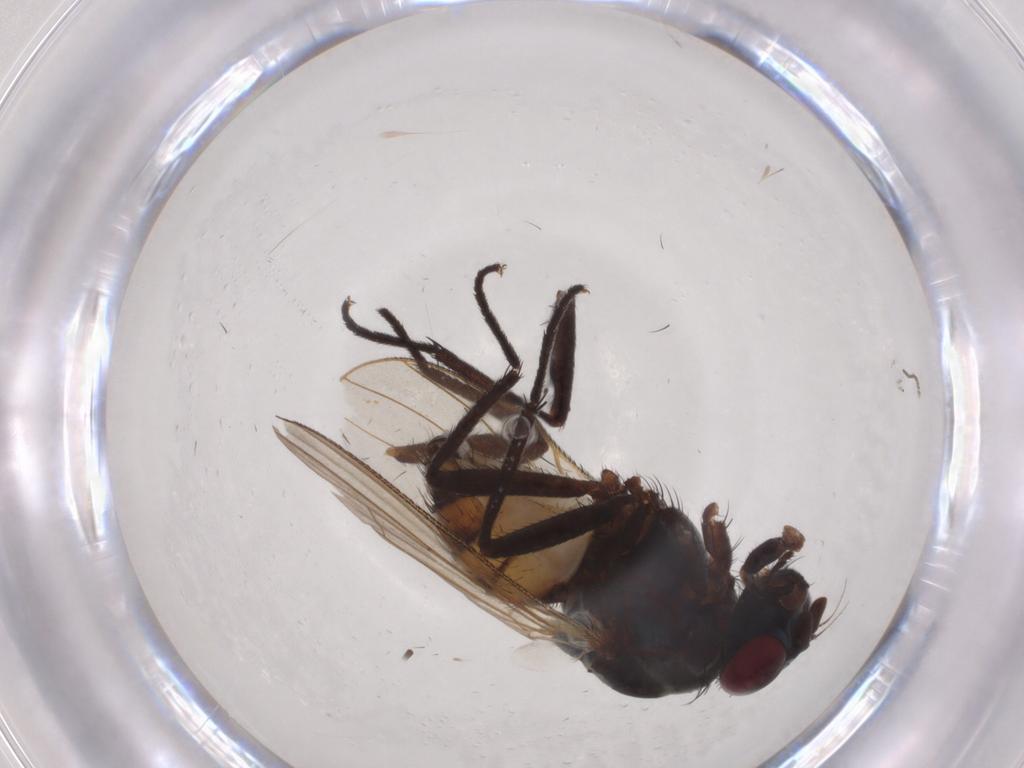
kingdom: Animalia
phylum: Arthropoda
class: Insecta
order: Diptera
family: Anthomyiidae
